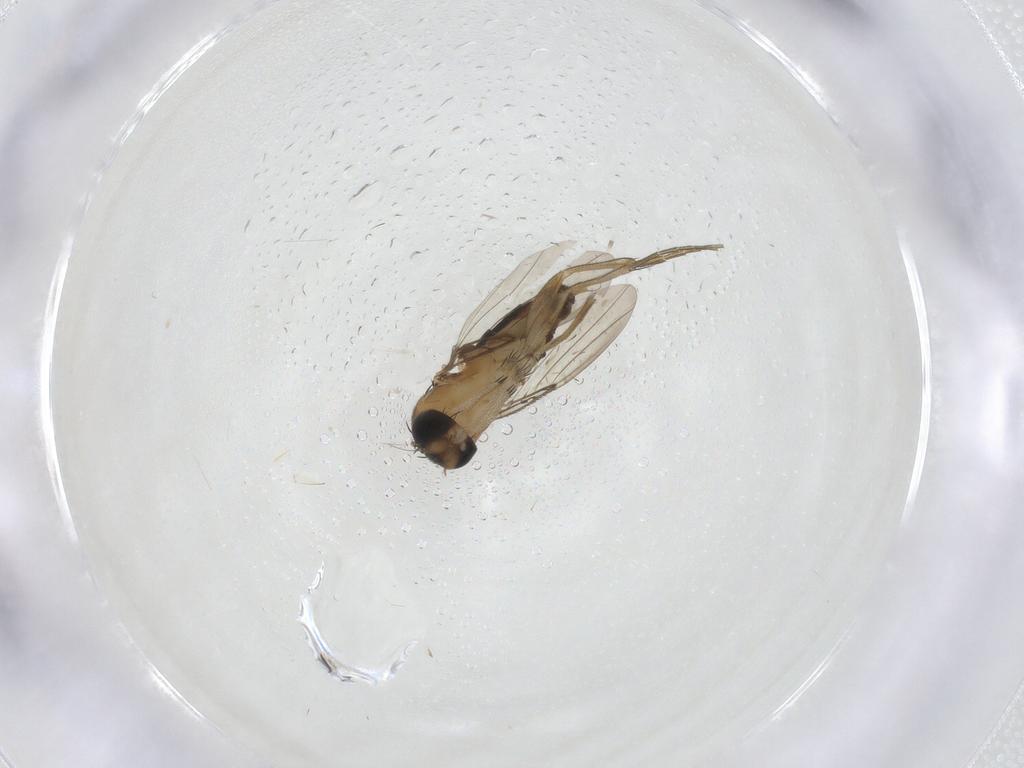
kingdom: Animalia
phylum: Arthropoda
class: Insecta
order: Diptera
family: Phoridae
